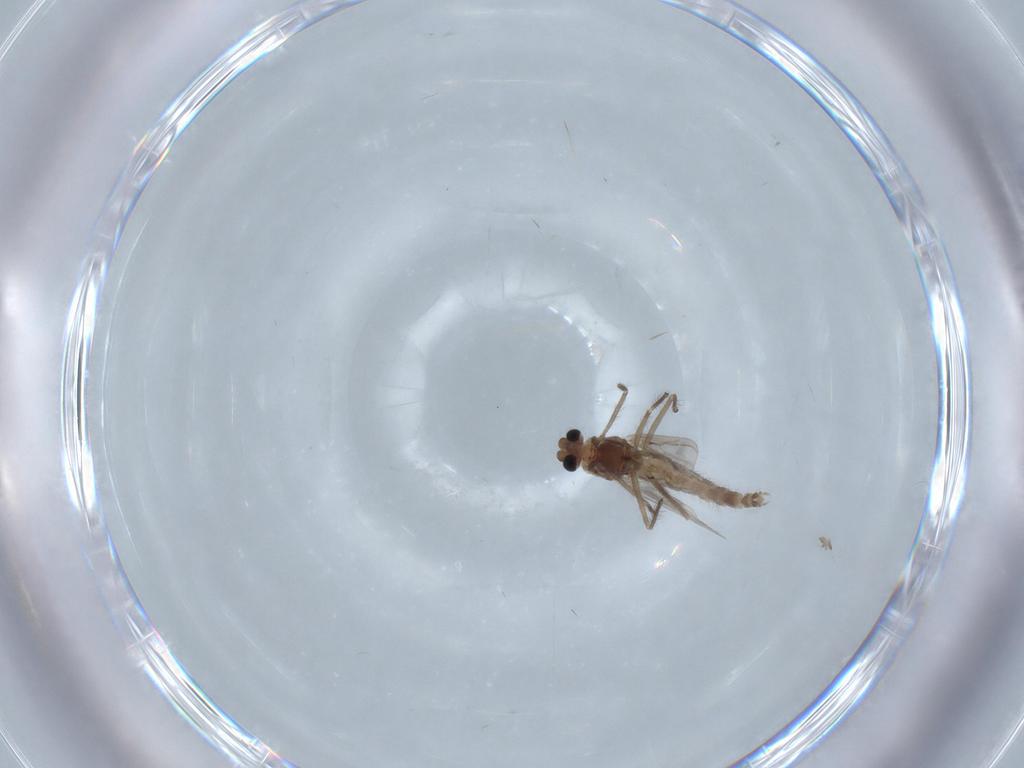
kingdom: Animalia
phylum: Arthropoda
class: Insecta
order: Diptera
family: Chironomidae
